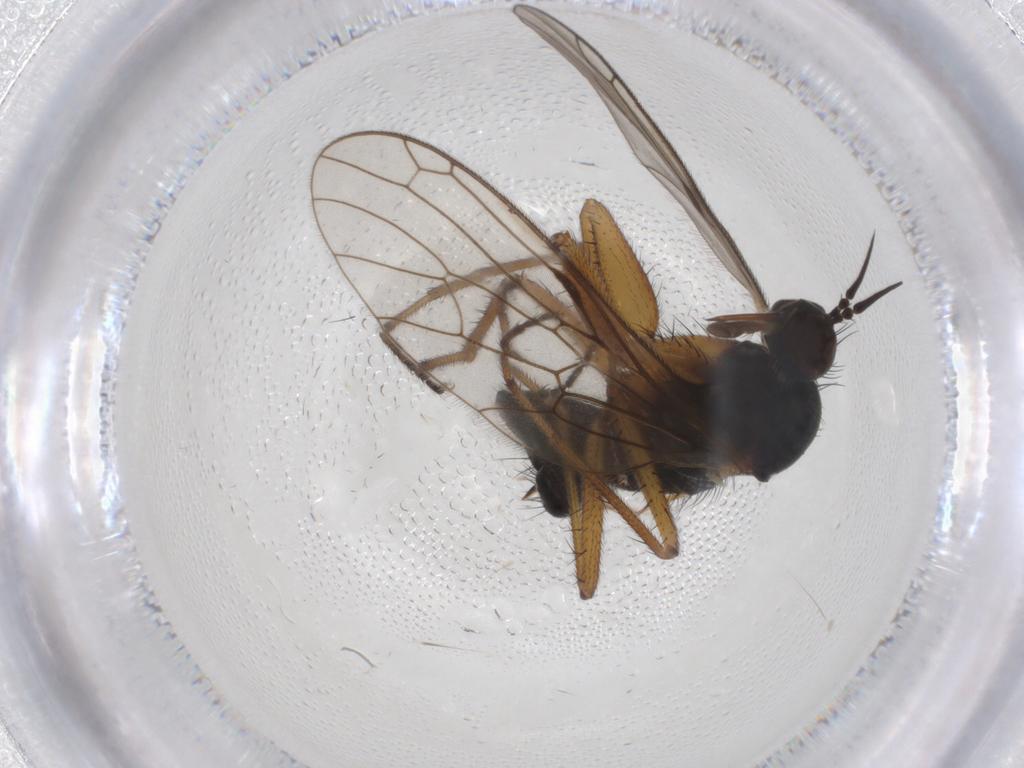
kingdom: Animalia
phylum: Arthropoda
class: Insecta
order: Diptera
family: Empididae
